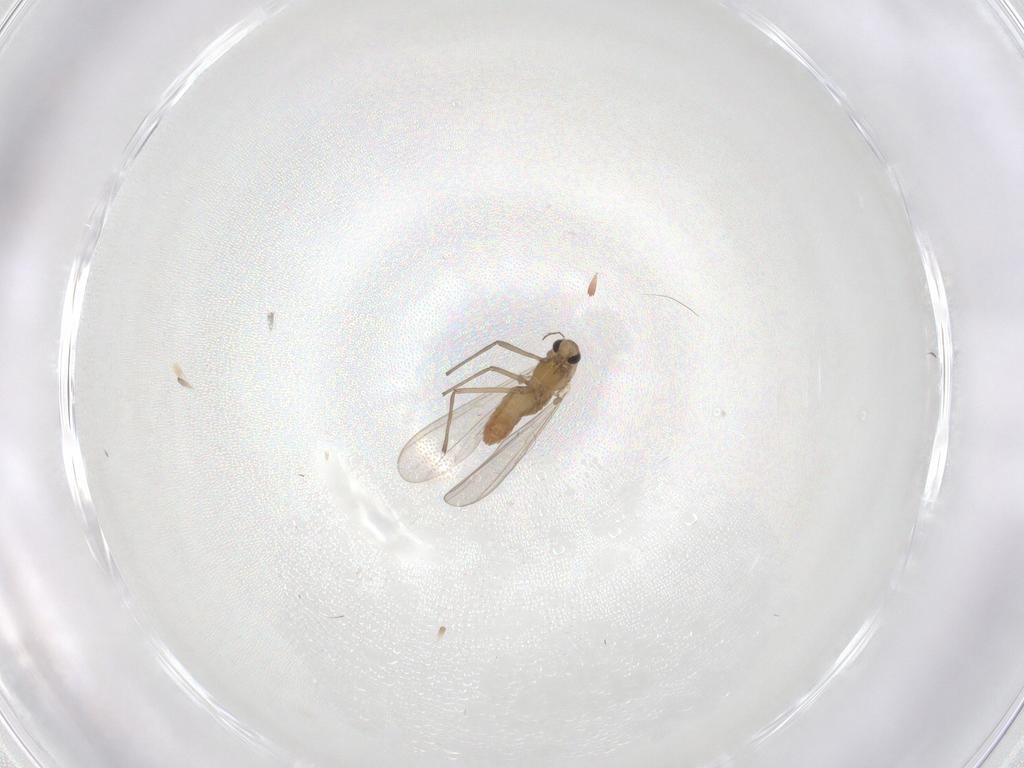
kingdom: Animalia
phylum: Arthropoda
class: Insecta
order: Diptera
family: Chironomidae
